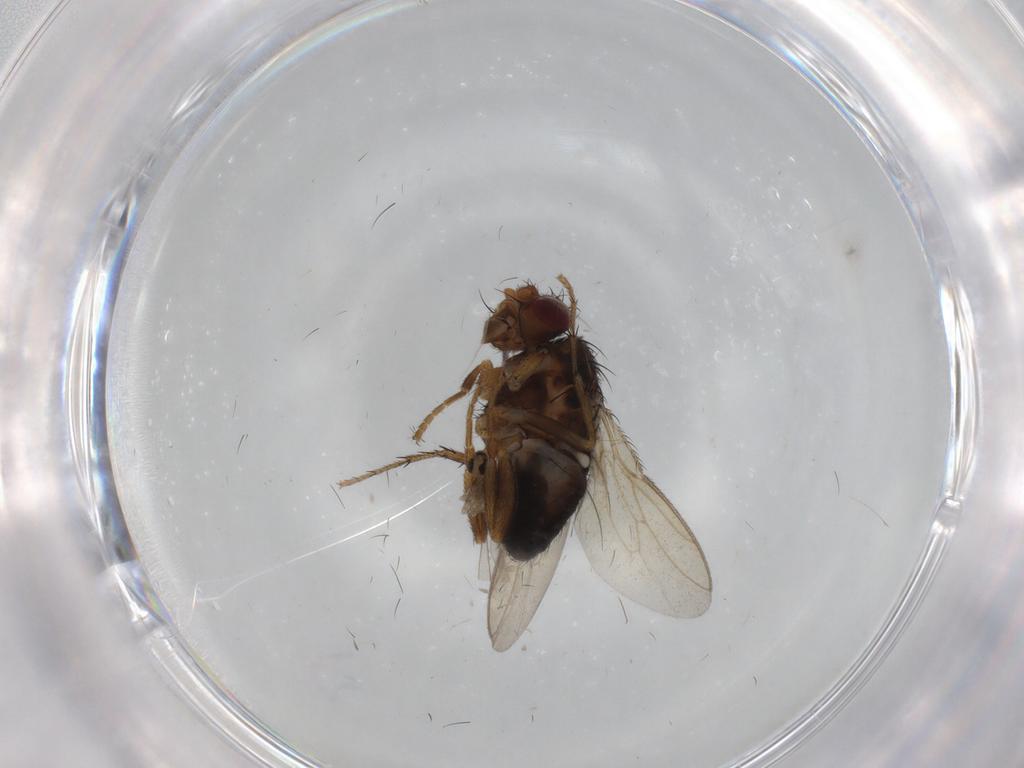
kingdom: Animalia
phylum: Arthropoda
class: Insecta
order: Diptera
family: Cecidomyiidae
